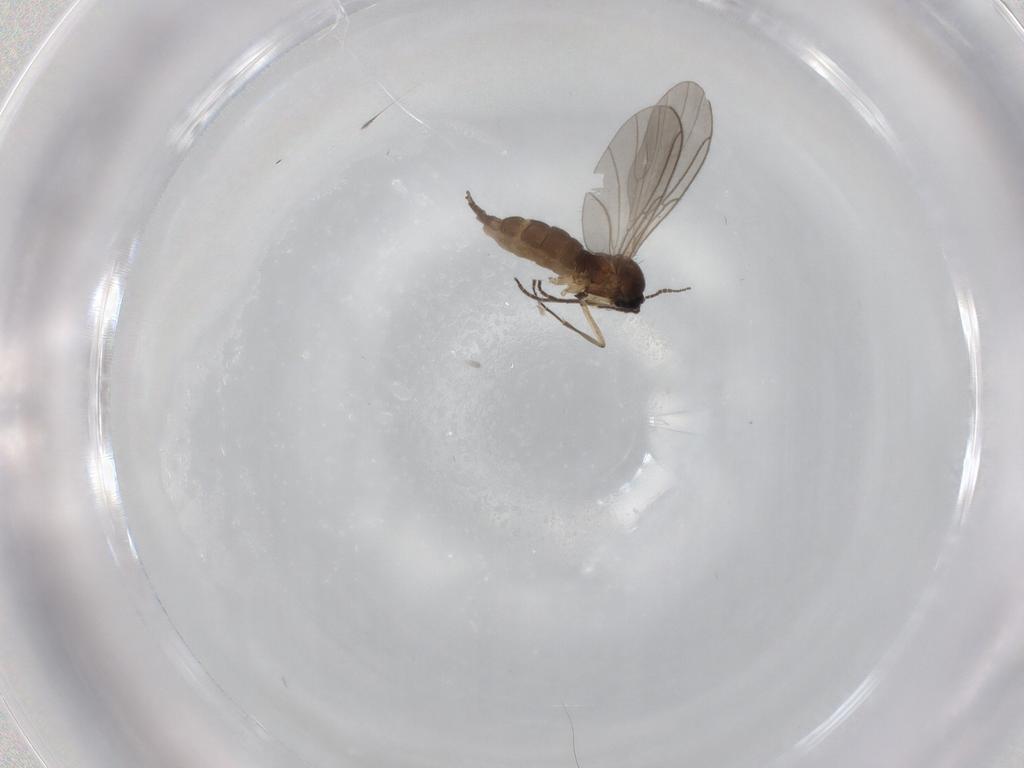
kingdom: Animalia
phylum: Arthropoda
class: Insecta
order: Diptera
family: Sciaridae
